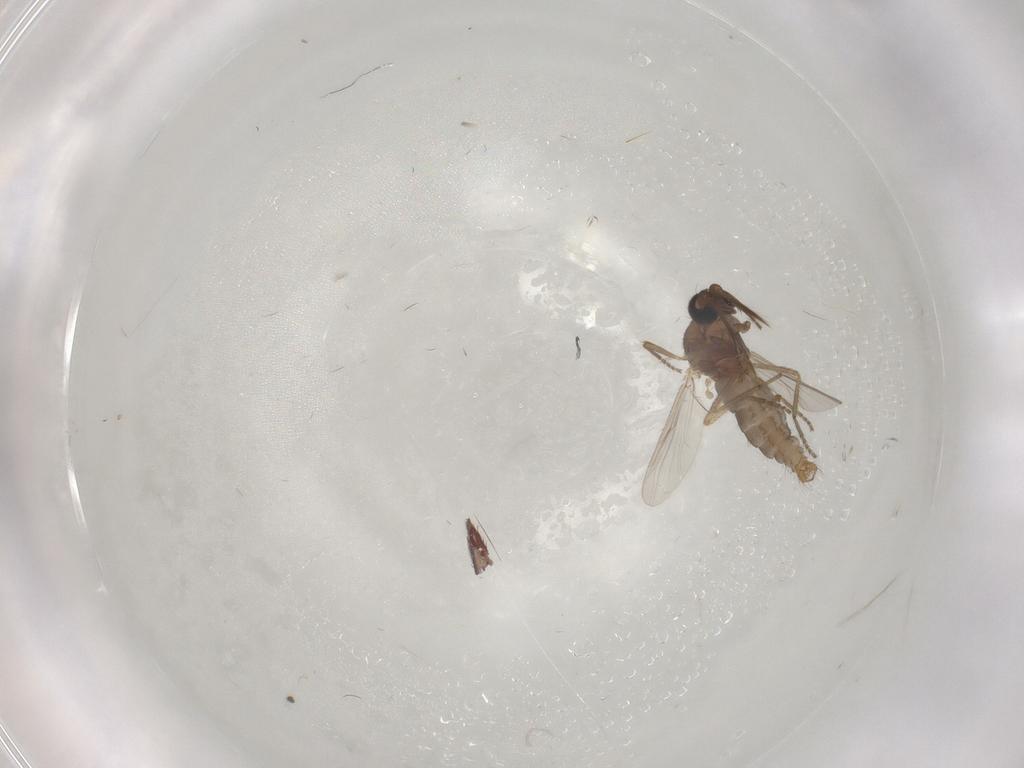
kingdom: Animalia
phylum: Arthropoda
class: Insecta
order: Diptera
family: Ceratopogonidae
